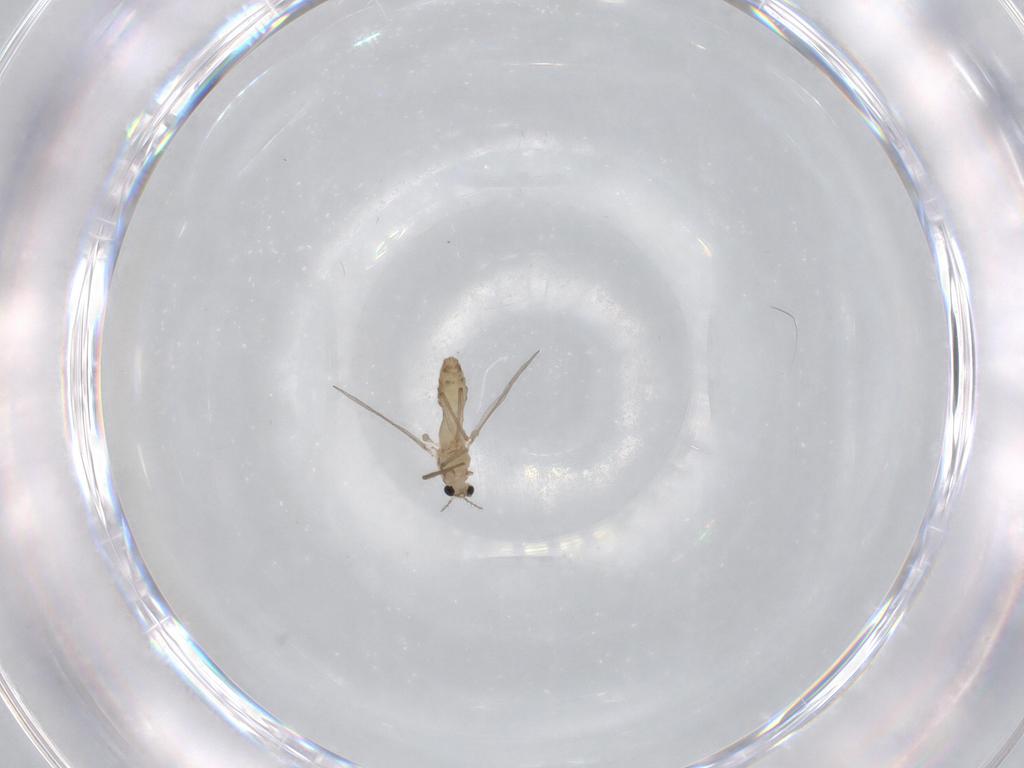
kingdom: Animalia
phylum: Arthropoda
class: Insecta
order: Diptera
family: Chironomidae
